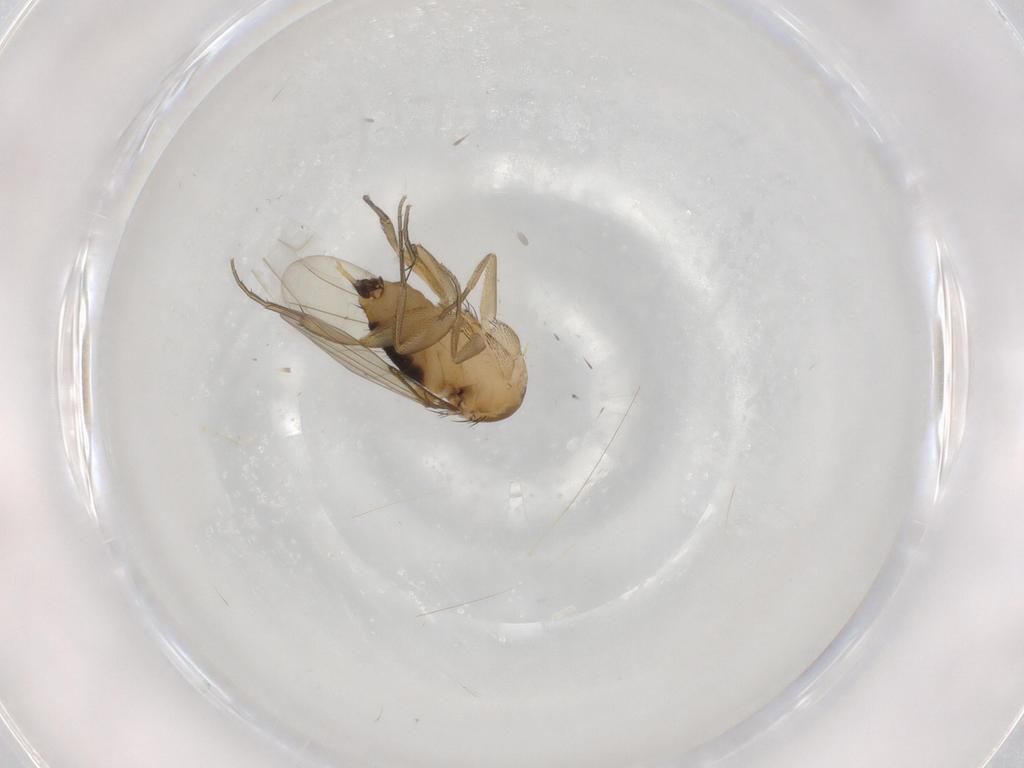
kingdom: Animalia
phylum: Arthropoda
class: Insecta
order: Diptera
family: Phoridae
